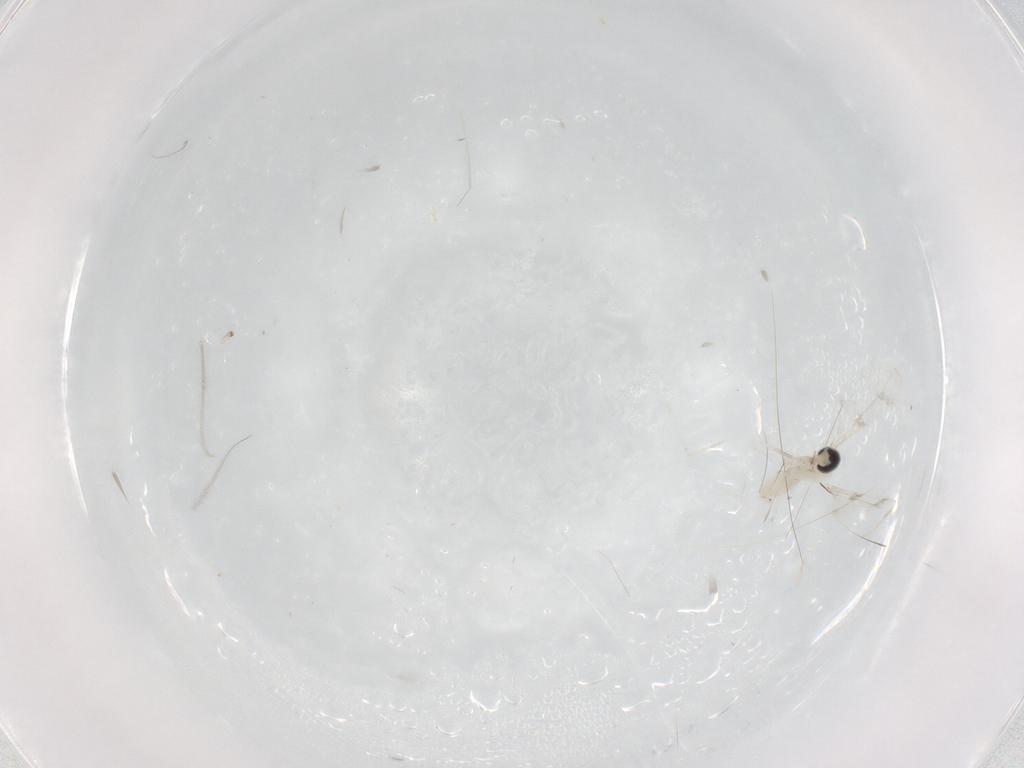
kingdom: Animalia
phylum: Arthropoda
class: Insecta
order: Diptera
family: Cecidomyiidae
